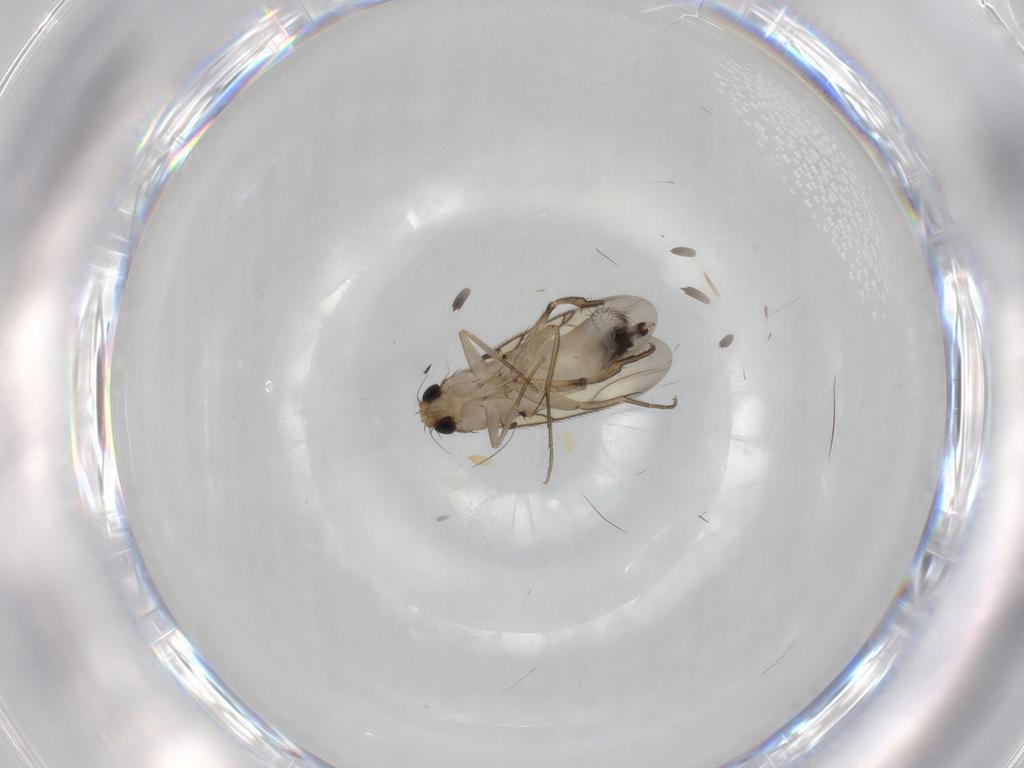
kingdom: Animalia
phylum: Arthropoda
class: Insecta
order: Diptera
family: Phoridae
